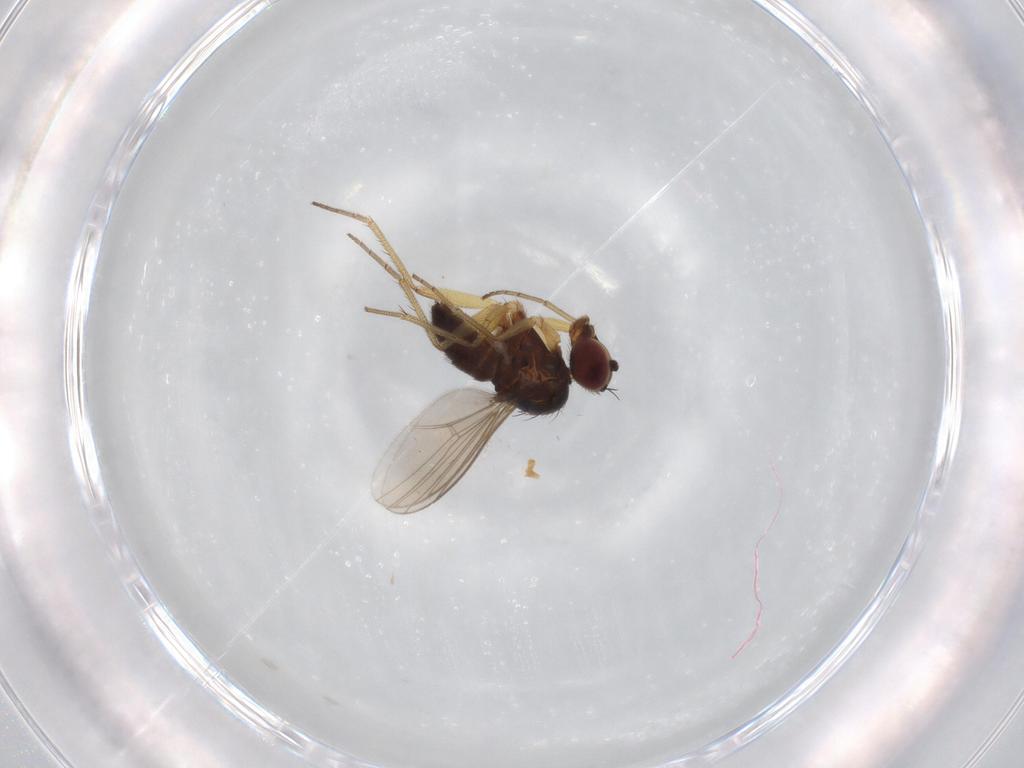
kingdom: Animalia
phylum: Arthropoda
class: Insecta
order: Diptera
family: Dolichopodidae
